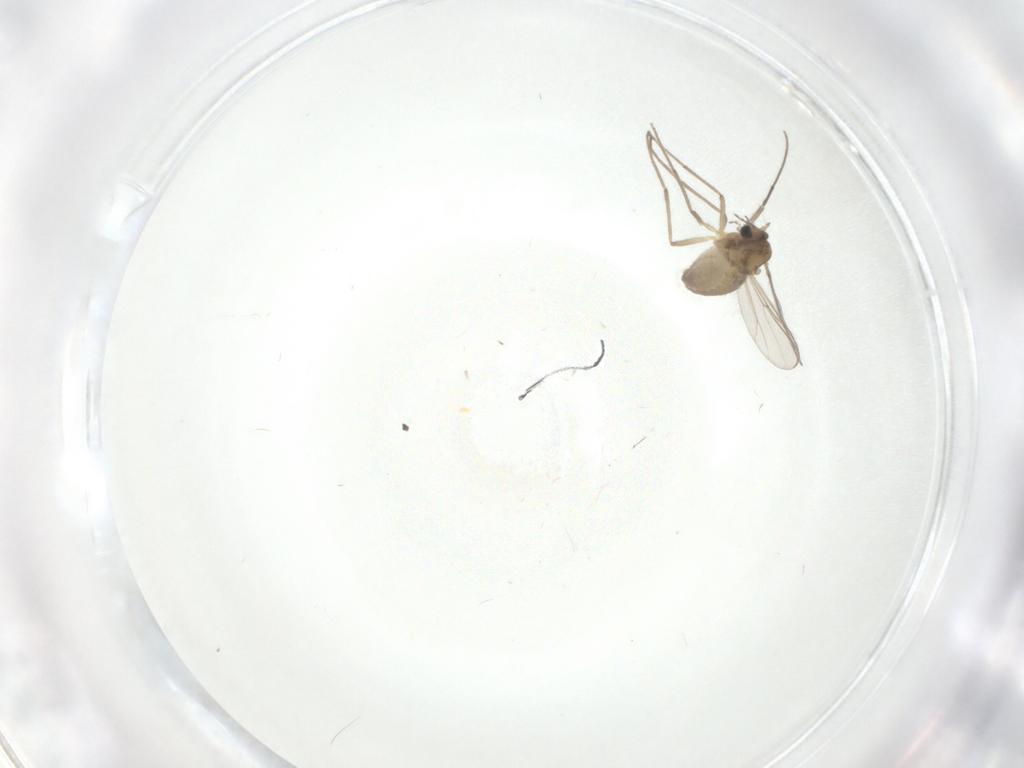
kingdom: Animalia
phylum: Arthropoda
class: Insecta
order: Diptera
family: Chironomidae
